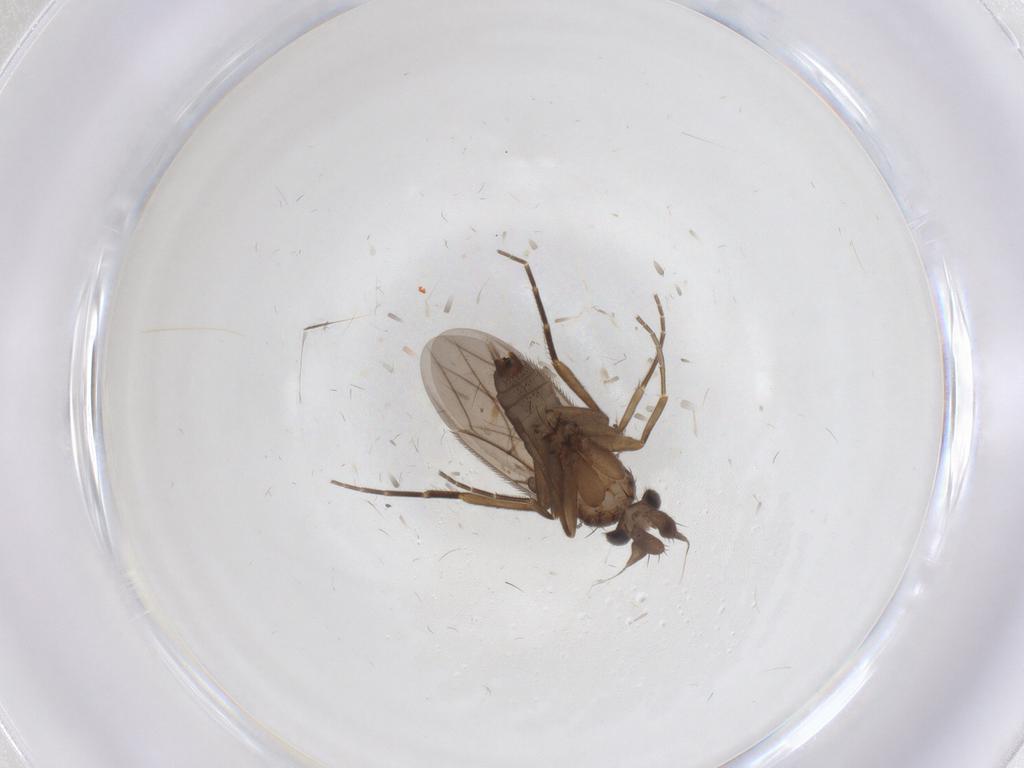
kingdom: Animalia
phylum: Arthropoda
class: Insecta
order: Diptera
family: Phoridae
